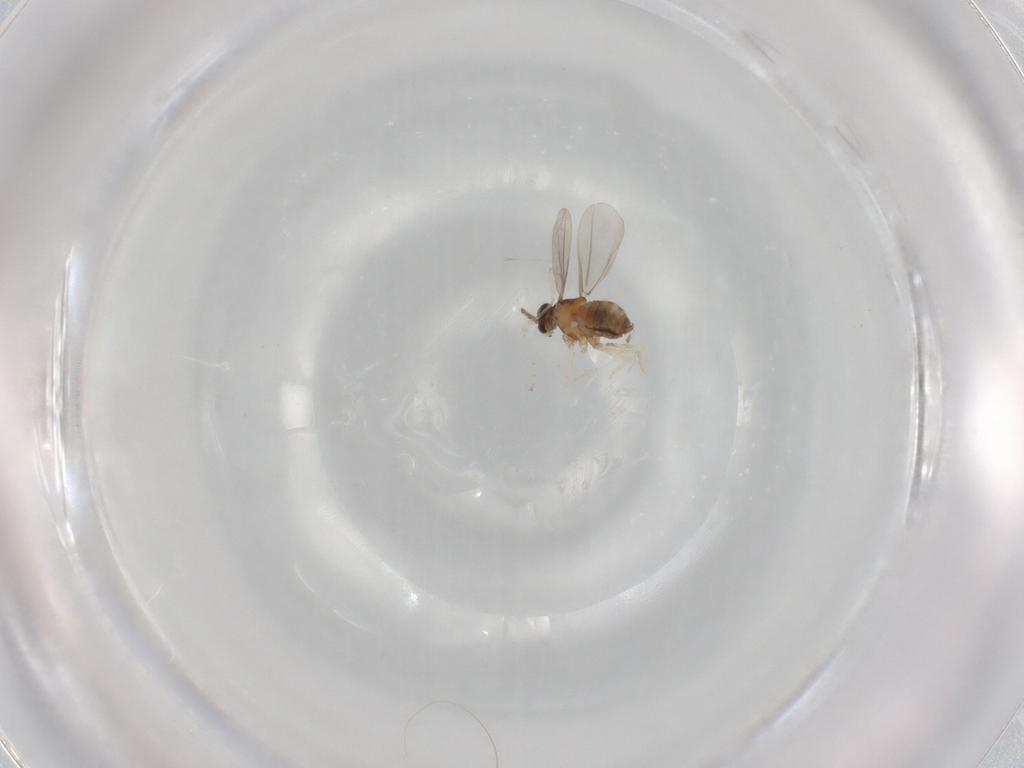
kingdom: Animalia
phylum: Arthropoda
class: Insecta
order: Diptera
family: Cecidomyiidae
